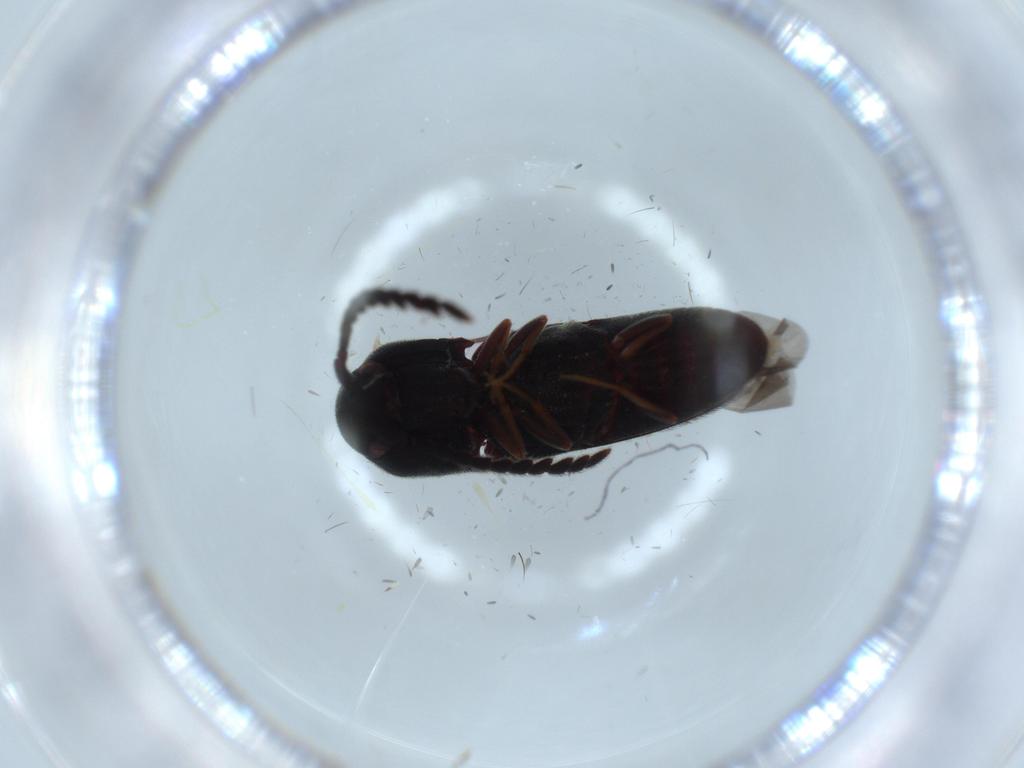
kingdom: Animalia
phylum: Arthropoda
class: Insecta
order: Coleoptera
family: Eucnemidae
